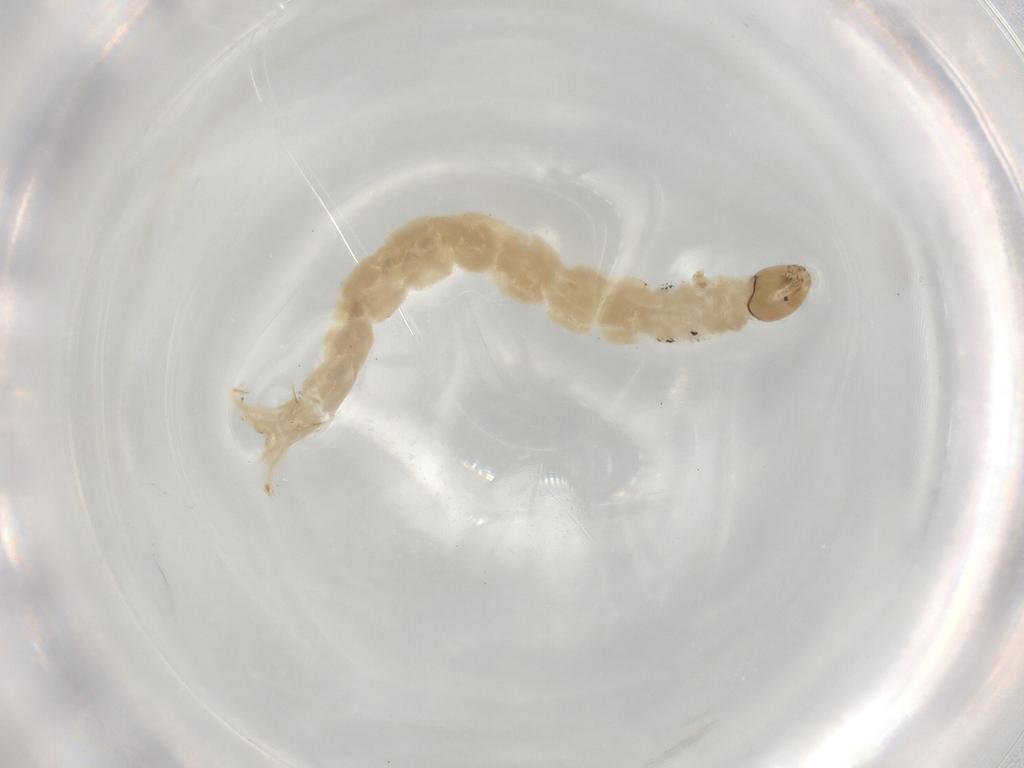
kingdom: Animalia
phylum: Arthropoda
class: Insecta
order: Diptera
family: Chironomidae
